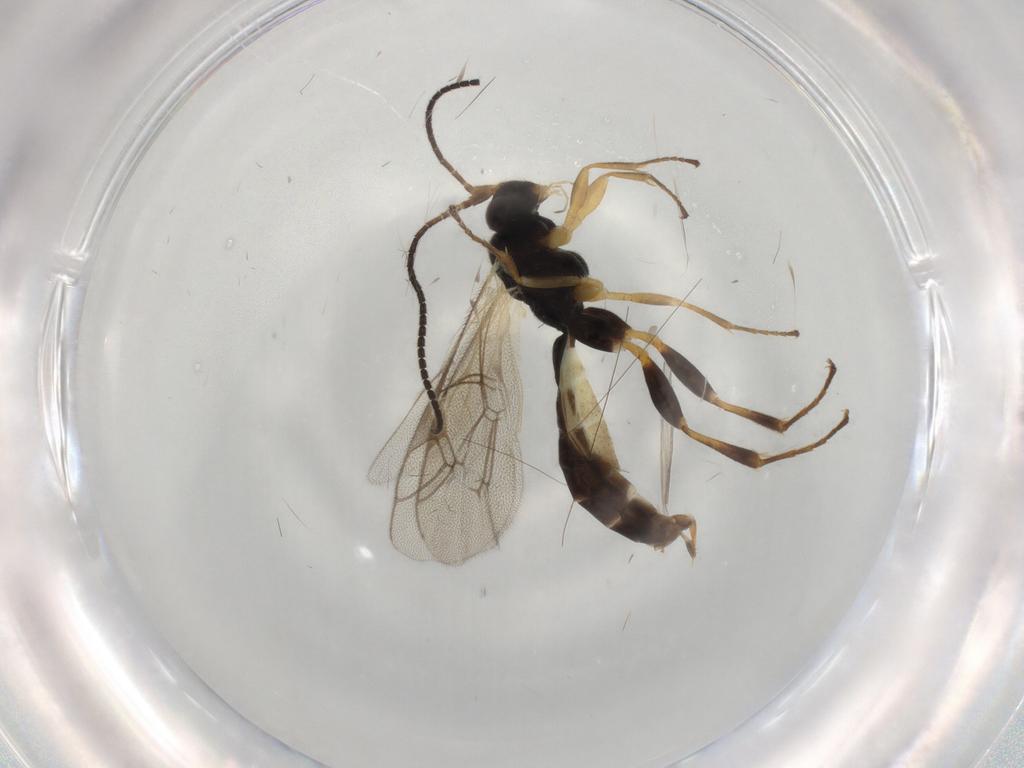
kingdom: Animalia
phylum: Arthropoda
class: Insecta
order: Hymenoptera
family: Ichneumonidae
